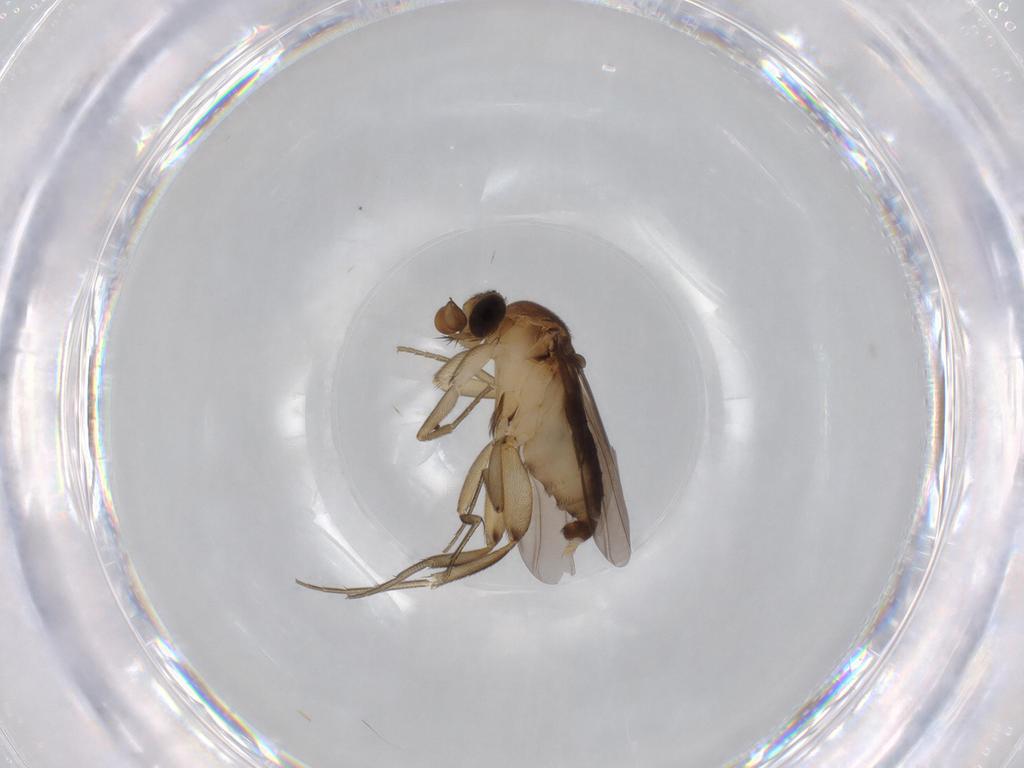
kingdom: Animalia
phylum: Arthropoda
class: Insecta
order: Diptera
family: Phoridae
